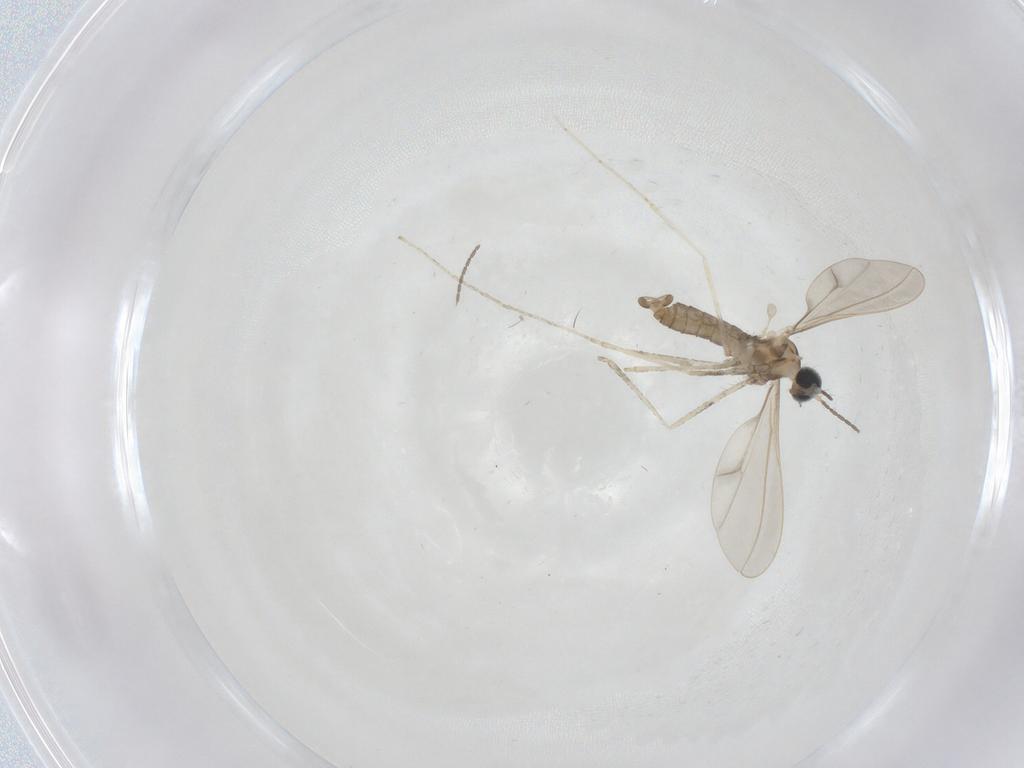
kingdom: Animalia
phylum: Arthropoda
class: Insecta
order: Diptera
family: Cecidomyiidae
